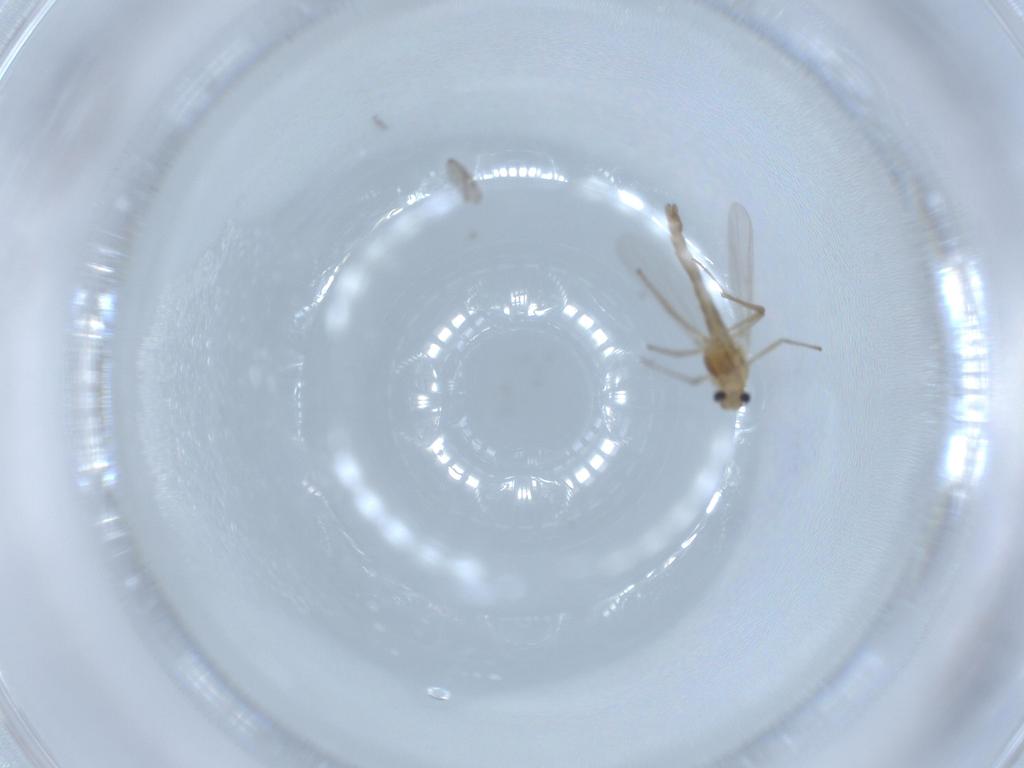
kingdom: Animalia
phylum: Arthropoda
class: Insecta
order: Diptera
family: Chironomidae
